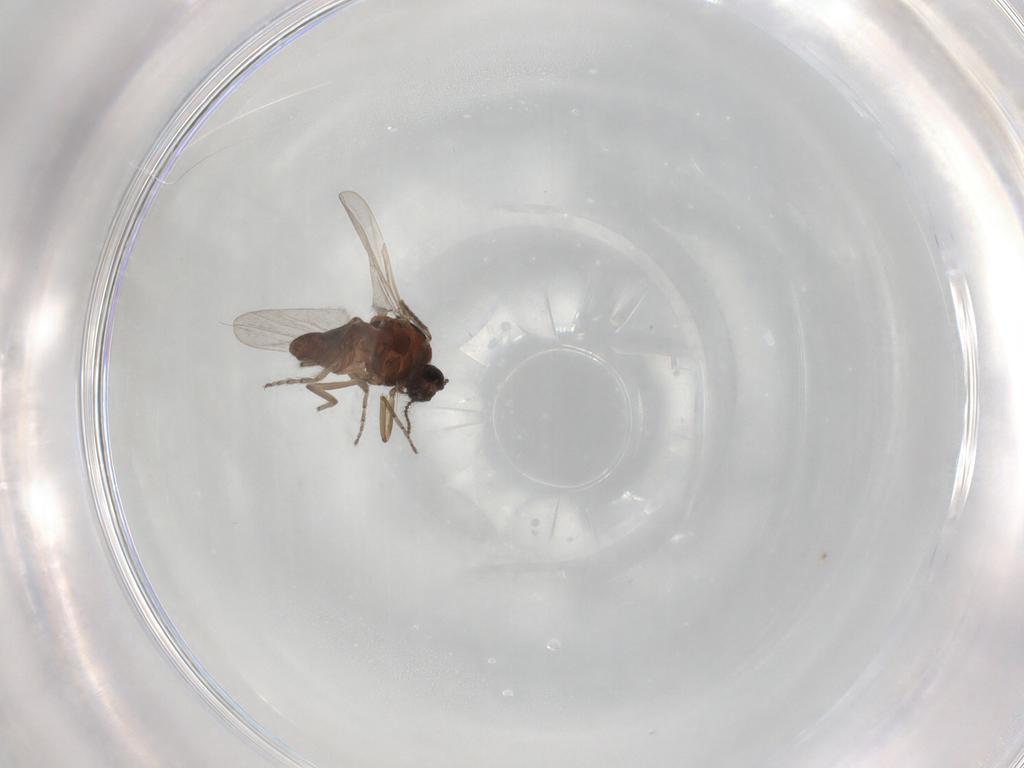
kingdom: Animalia
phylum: Arthropoda
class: Insecta
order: Diptera
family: Ceratopogonidae
